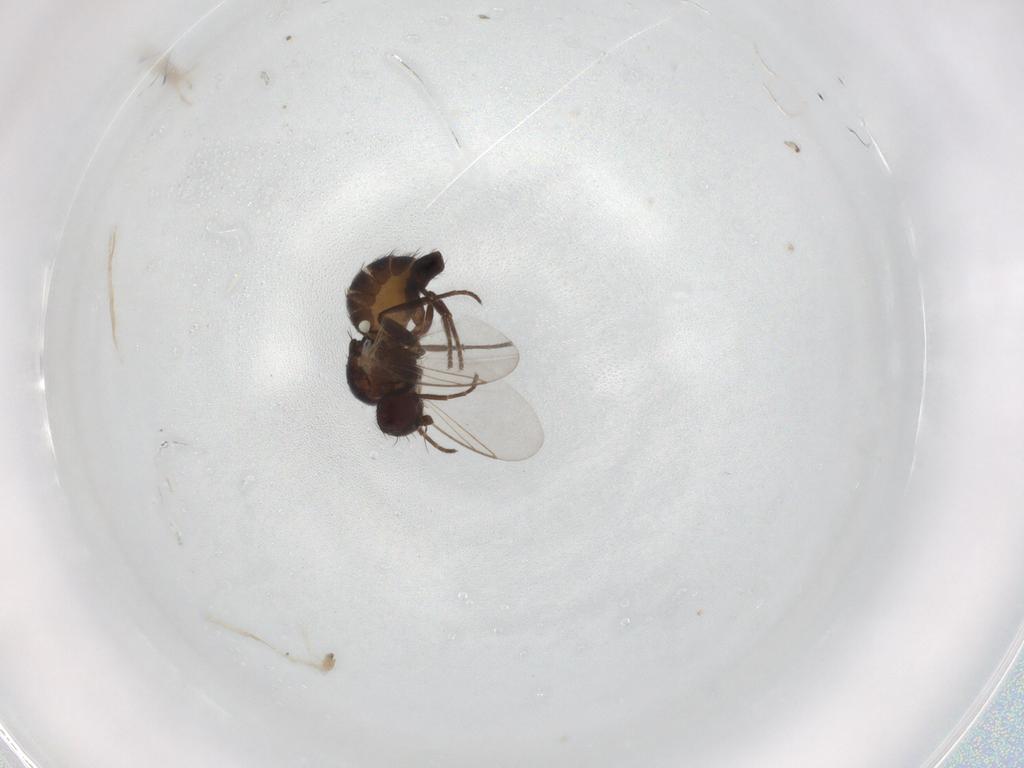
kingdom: Animalia
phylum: Arthropoda
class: Insecta
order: Diptera
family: Agromyzidae
